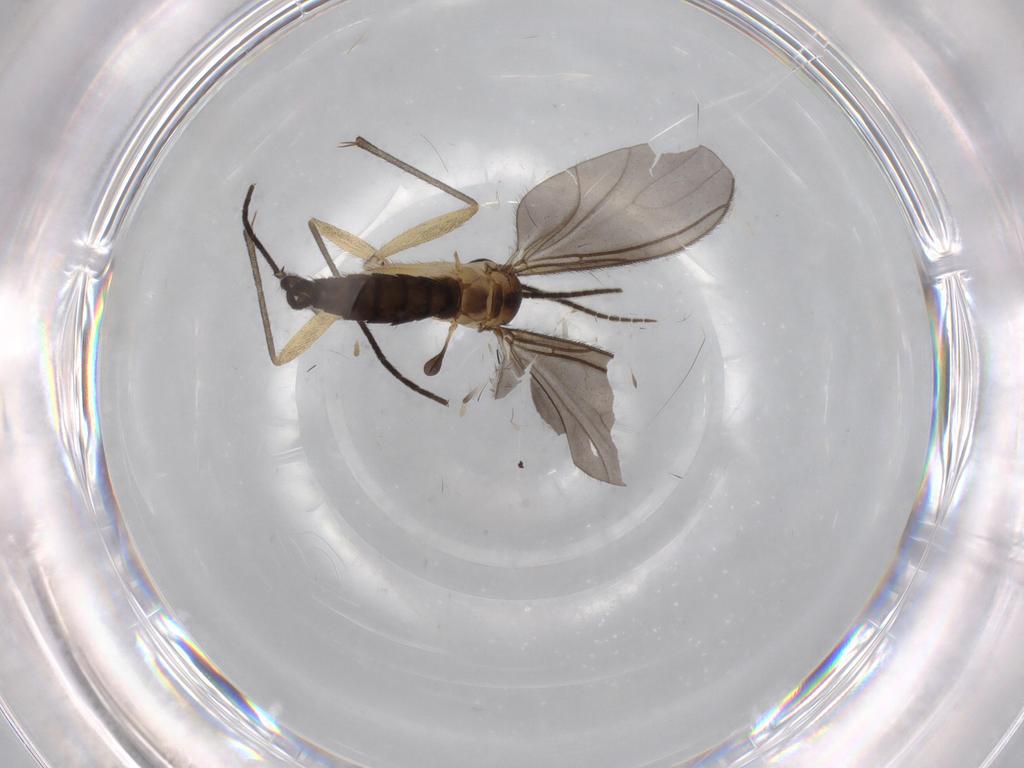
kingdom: Animalia
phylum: Arthropoda
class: Insecta
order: Diptera
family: Sciaridae
